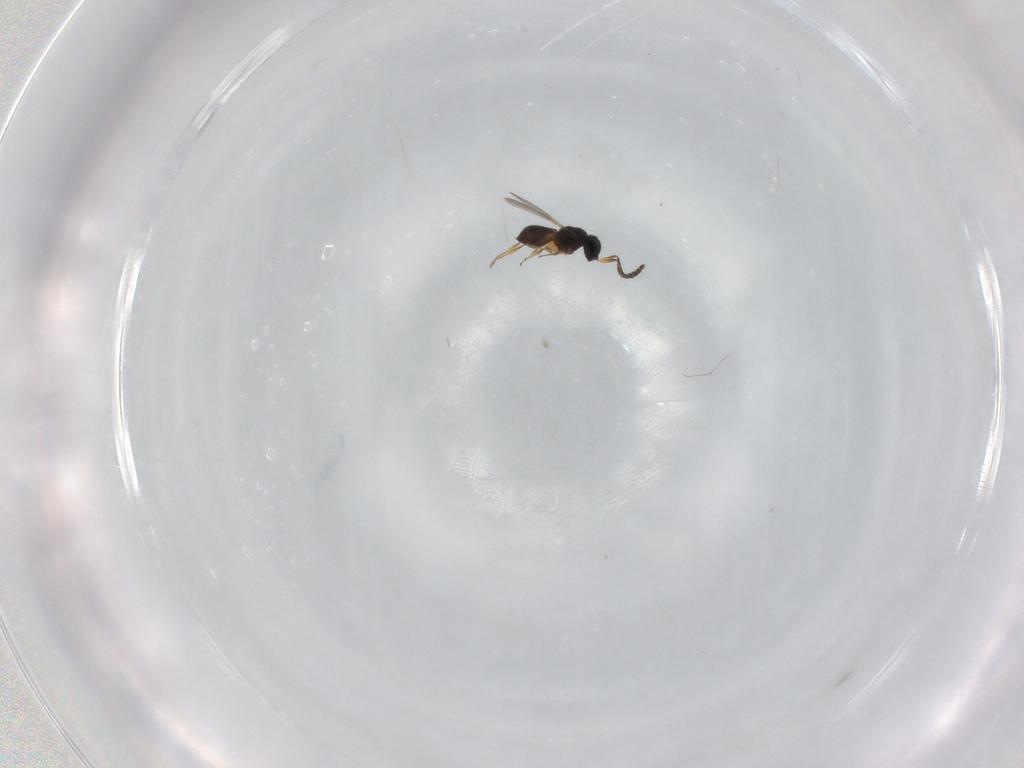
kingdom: Animalia
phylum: Arthropoda
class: Insecta
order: Hymenoptera
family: Scelionidae
